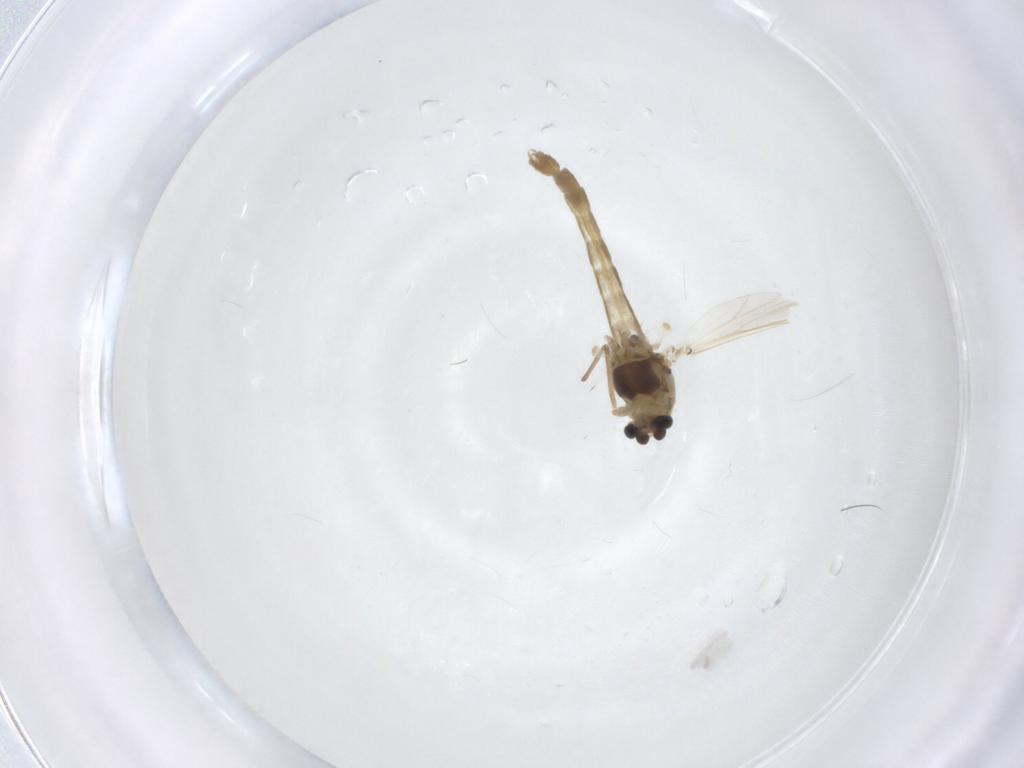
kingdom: Animalia
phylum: Arthropoda
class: Insecta
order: Diptera
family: Chironomidae
